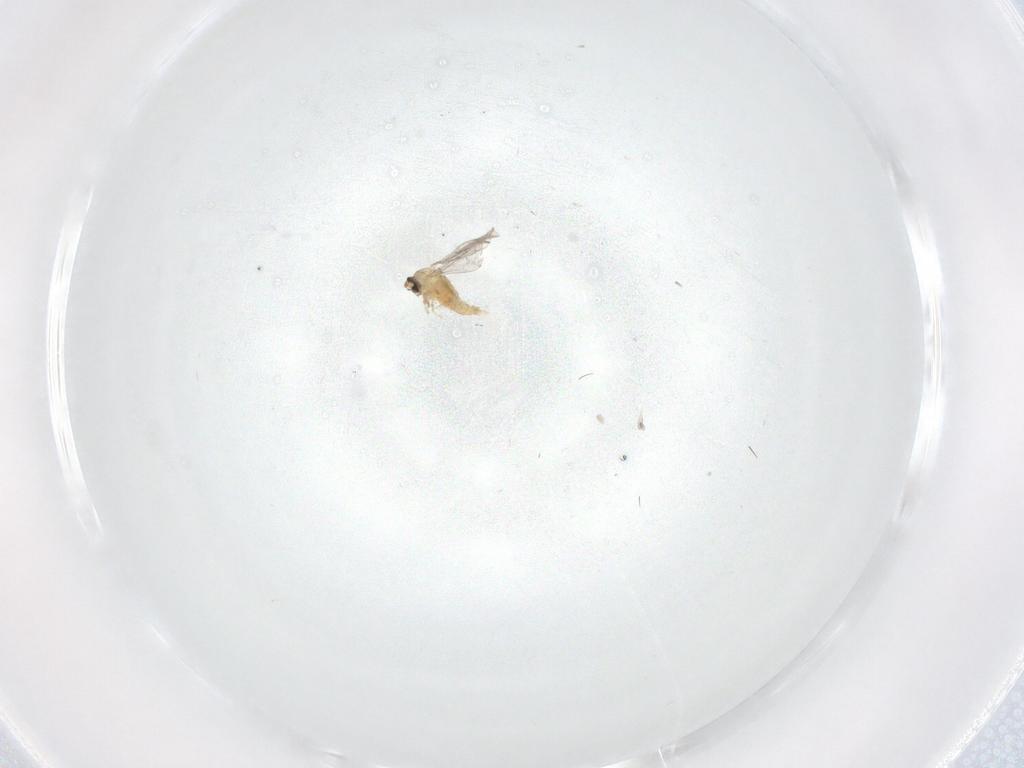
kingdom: Animalia
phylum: Arthropoda
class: Insecta
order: Diptera
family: Cecidomyiidae
